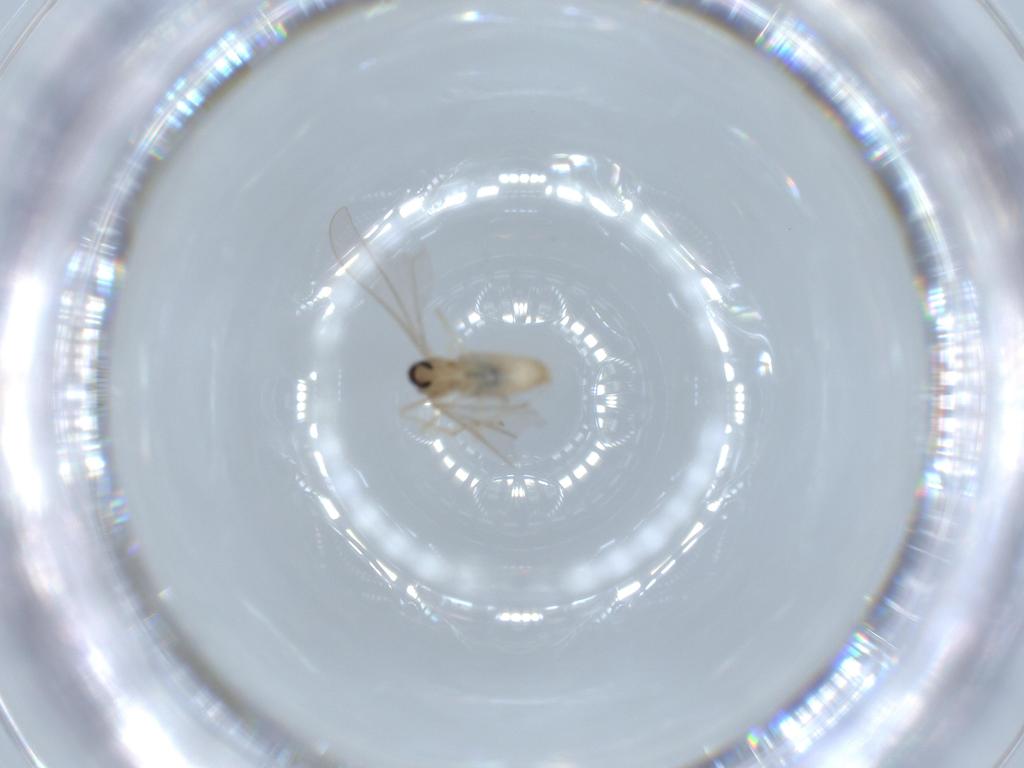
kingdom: Animalia
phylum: Arthropoda
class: Insecta
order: Diptera
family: Cecidomyiidae
